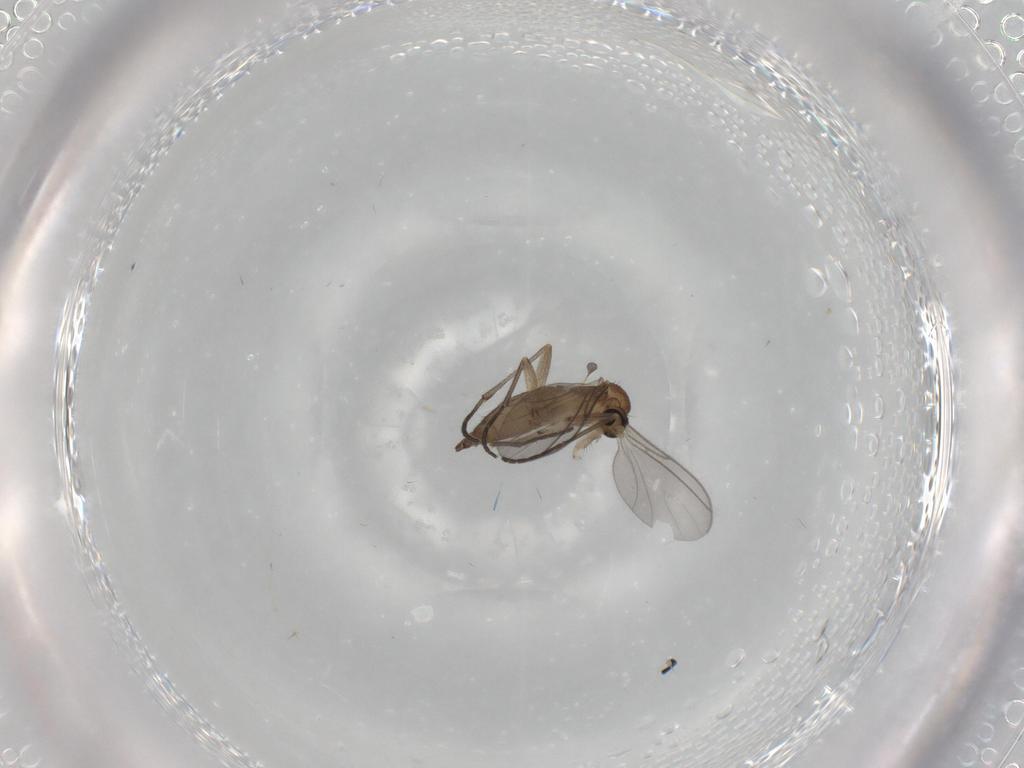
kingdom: Animalia
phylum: Arthropoda
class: Insecta
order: Diptera
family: Sciaridae
